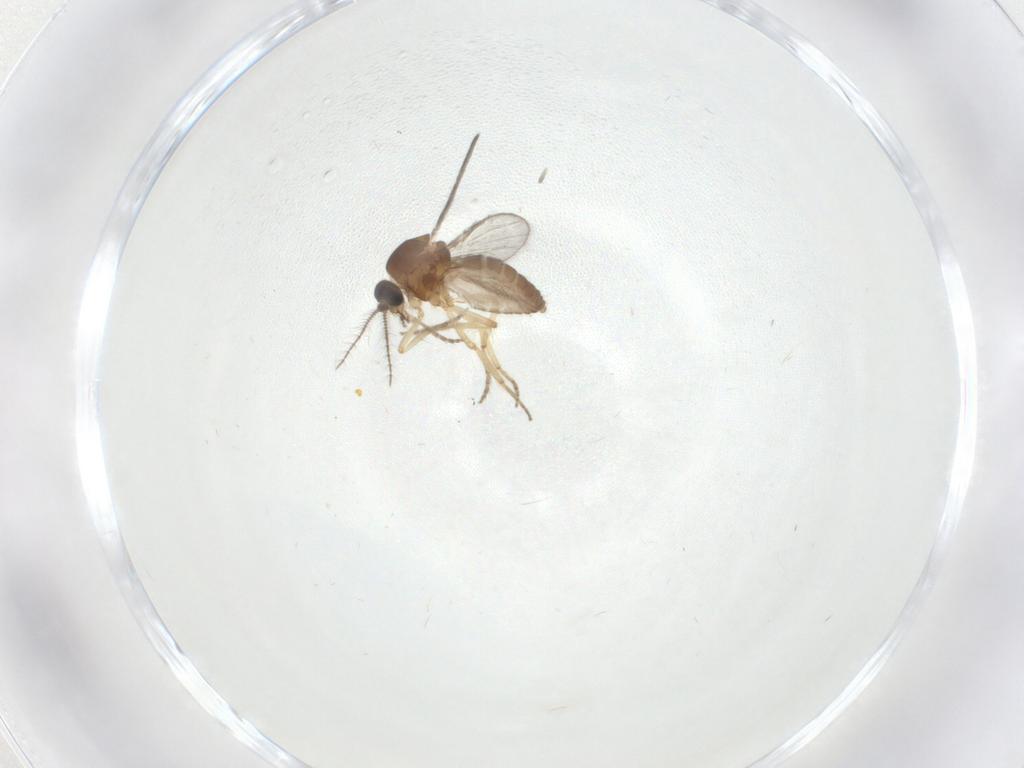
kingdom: Animalia
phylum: Arthropoda
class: Insecta
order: Diptera
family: Ceratopogonidae
